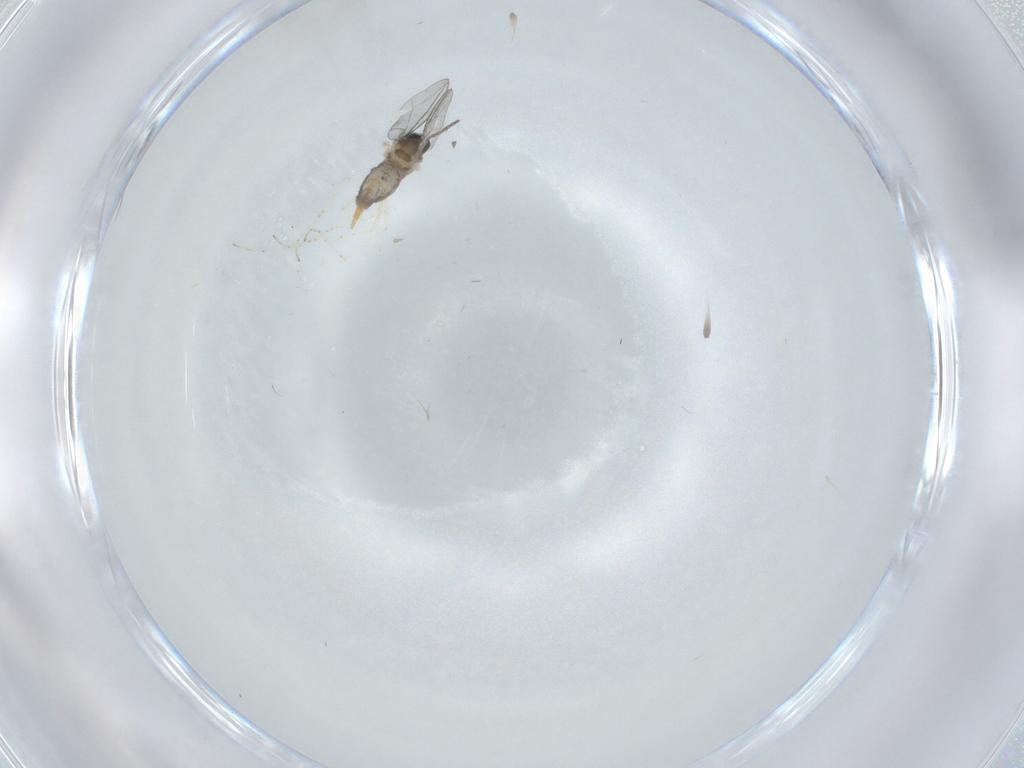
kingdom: Animalia
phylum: Arthropoda
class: Insecta
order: Diptera
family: Cecidomyiidae
